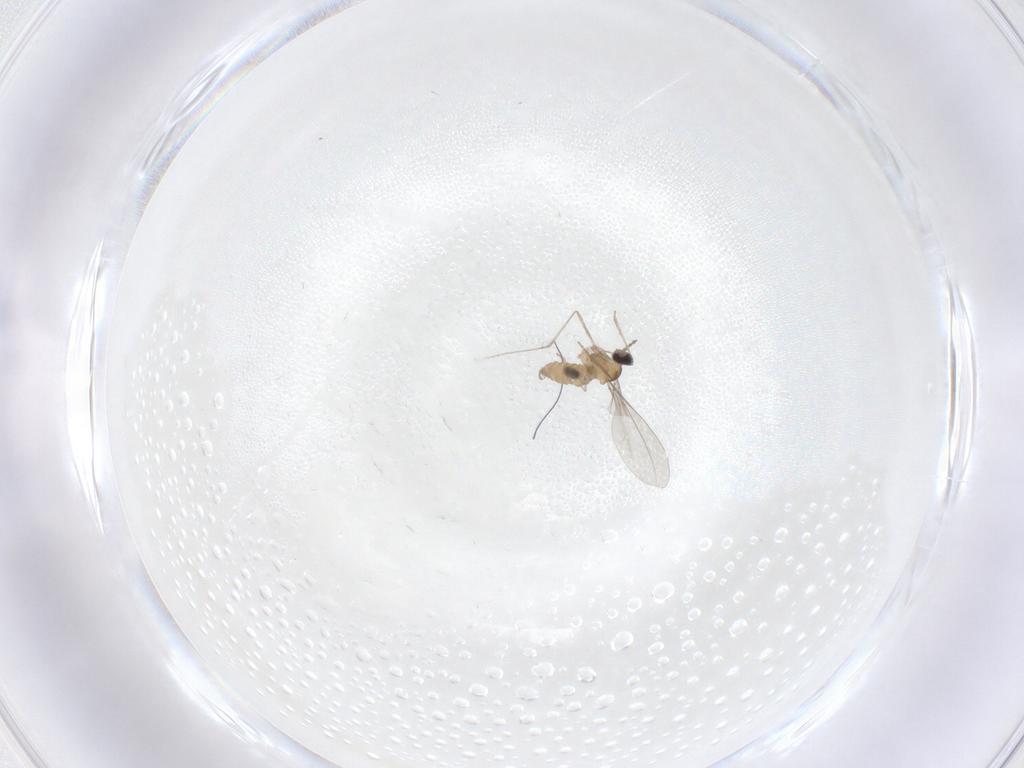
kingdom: Animalia
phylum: Arthropoda
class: Insecta
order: Diptera
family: Cecidomyiidae
